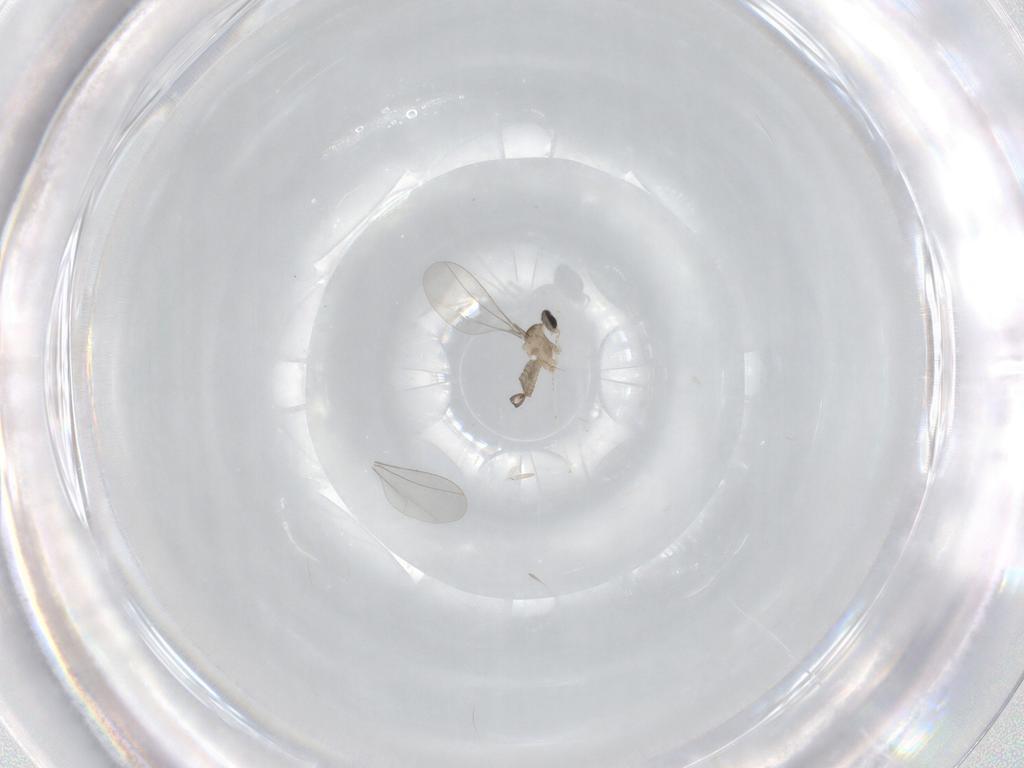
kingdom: Animalia
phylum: Arthropoda
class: Insecta
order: Diptera
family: Cecidomyiidae
